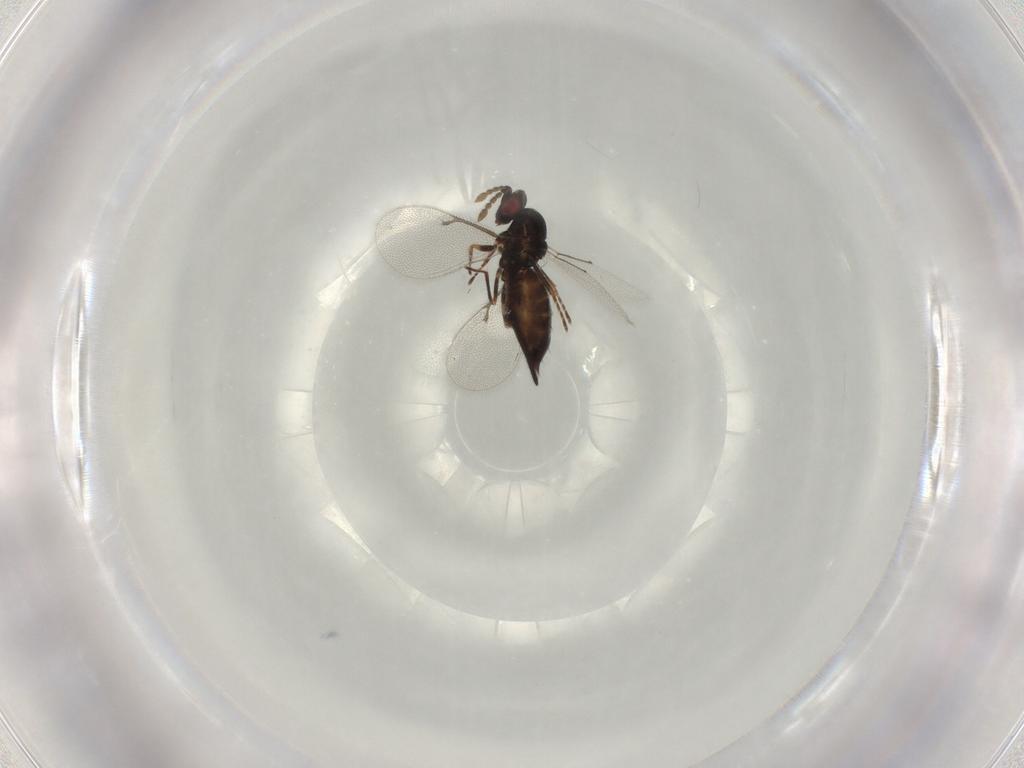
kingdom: Animalia
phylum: Arthropoda
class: Insecta
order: Hymenoptera
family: Eulophidae
